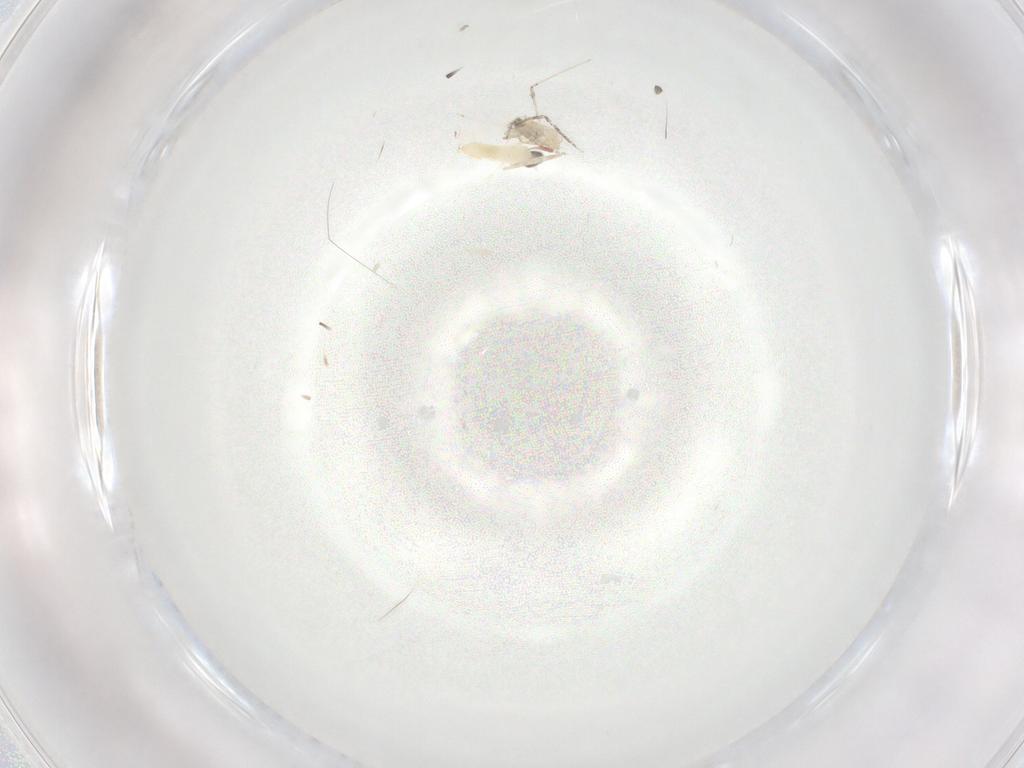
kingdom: Animalia
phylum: Arthropoda
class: Insecta
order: Diptera
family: Cecidomyiidae
